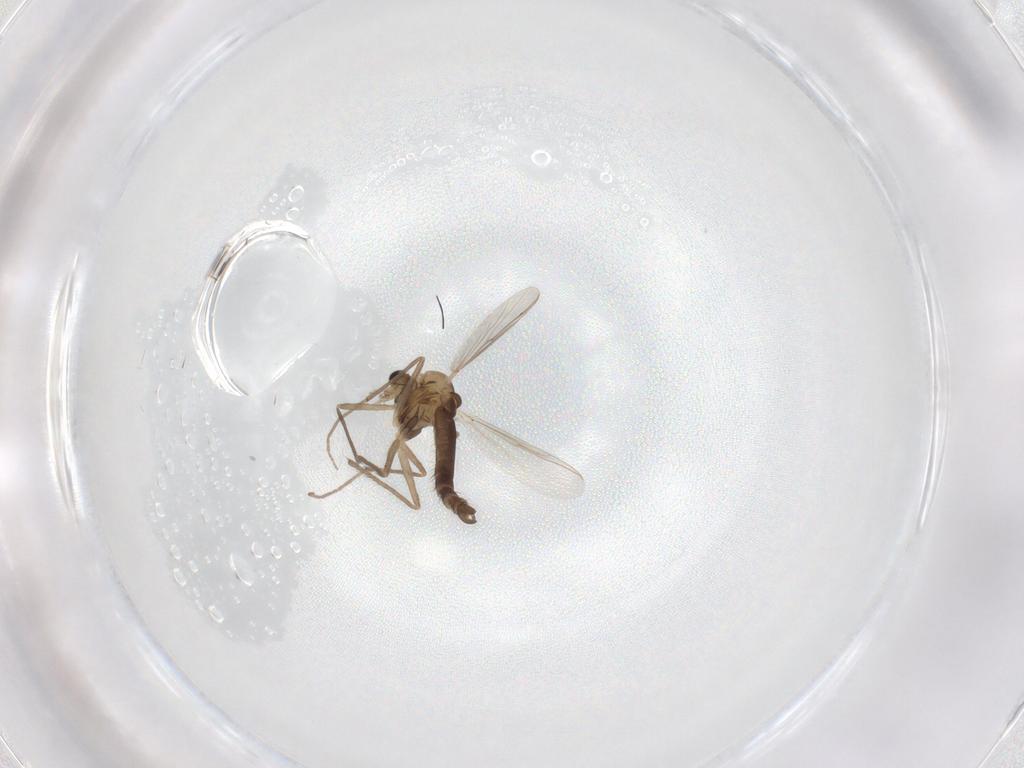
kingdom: Animalia
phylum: Arthropoda
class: Insecta
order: Diptera
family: Chironomidae
